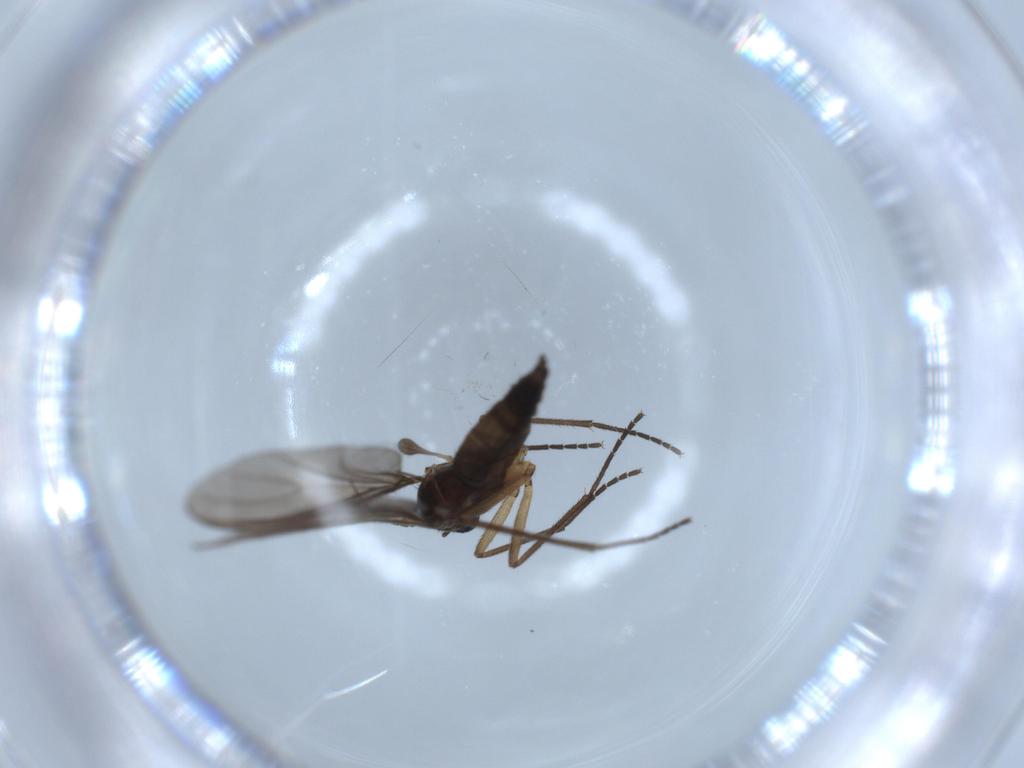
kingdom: Animalia
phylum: Arthropoda
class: Insecta
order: Diptera
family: Sciaridae
